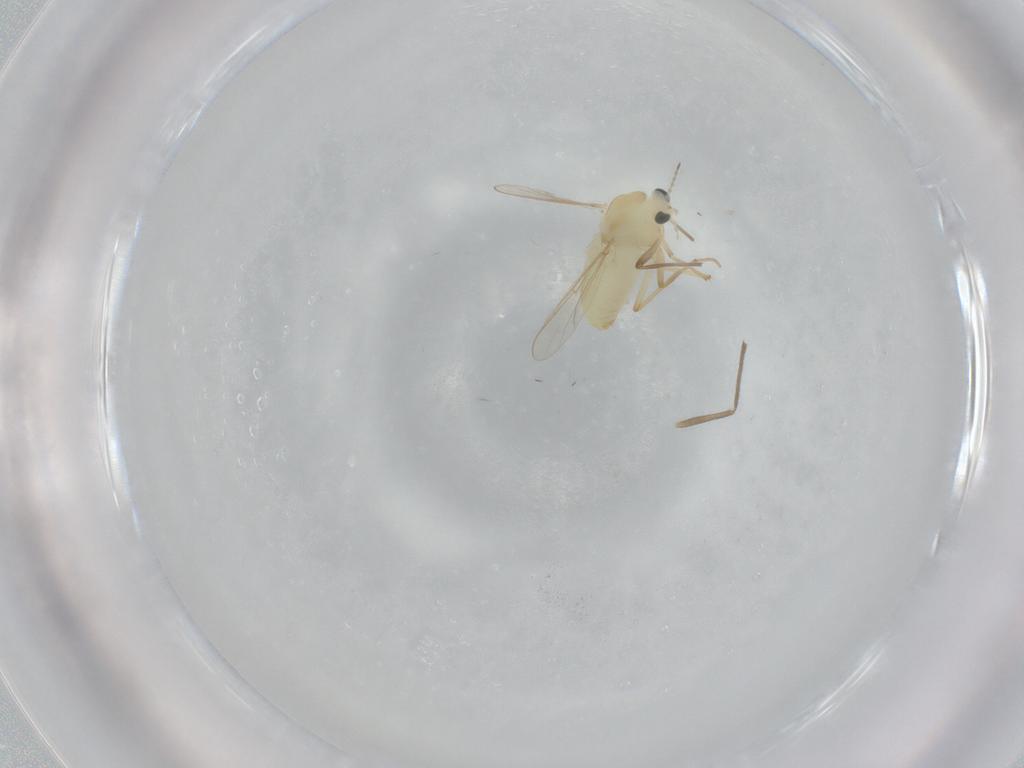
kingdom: Animalia
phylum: Arthropoda
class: Insecta
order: Diptera
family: Chironomidae
